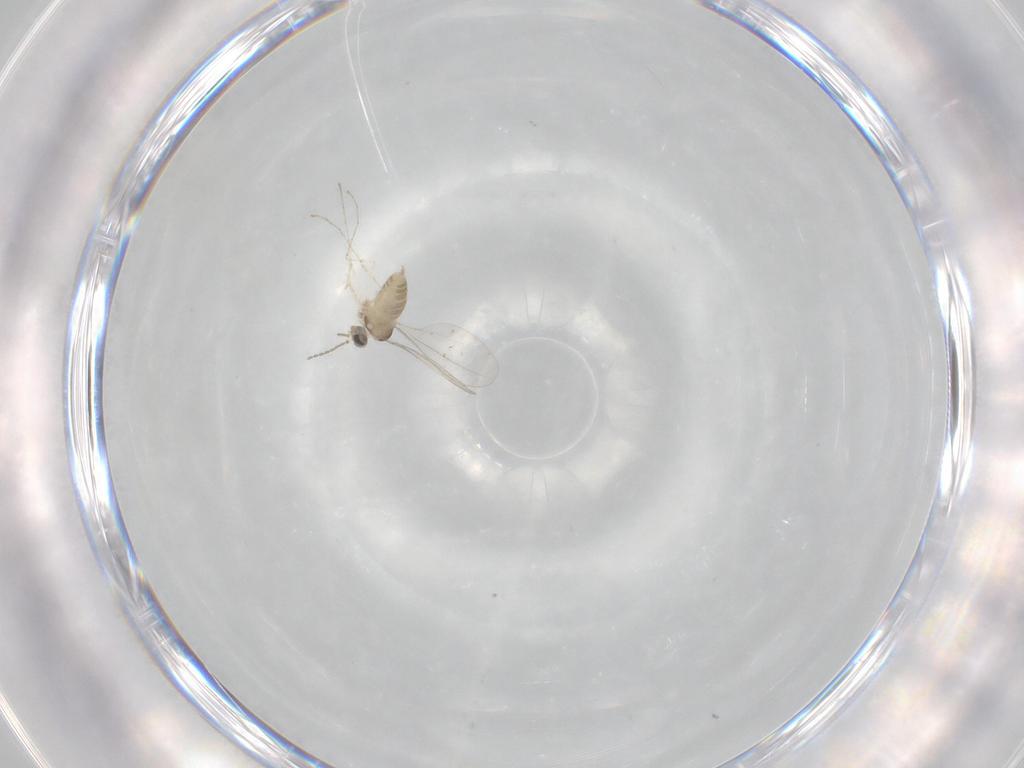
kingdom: Animalia
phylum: Arthropoda
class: Insecta
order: Diptera
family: Cecidomyiidae
